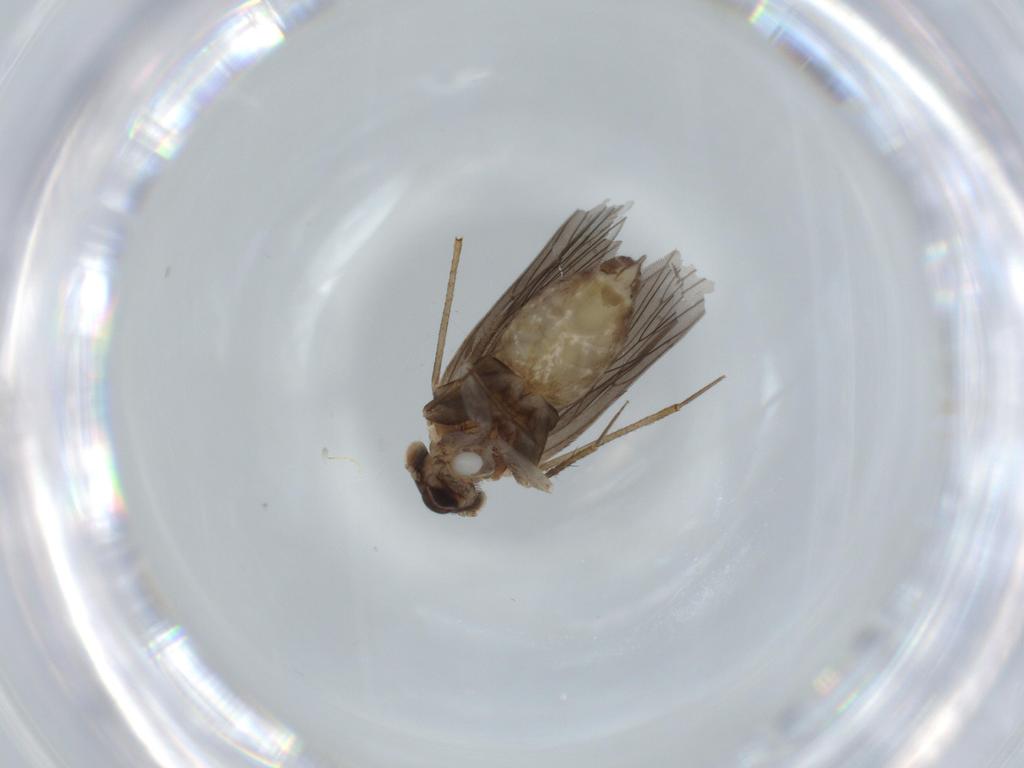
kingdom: Animalia
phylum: Arthropoda
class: Insecta
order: Psocodea
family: Lepidopsocidae
